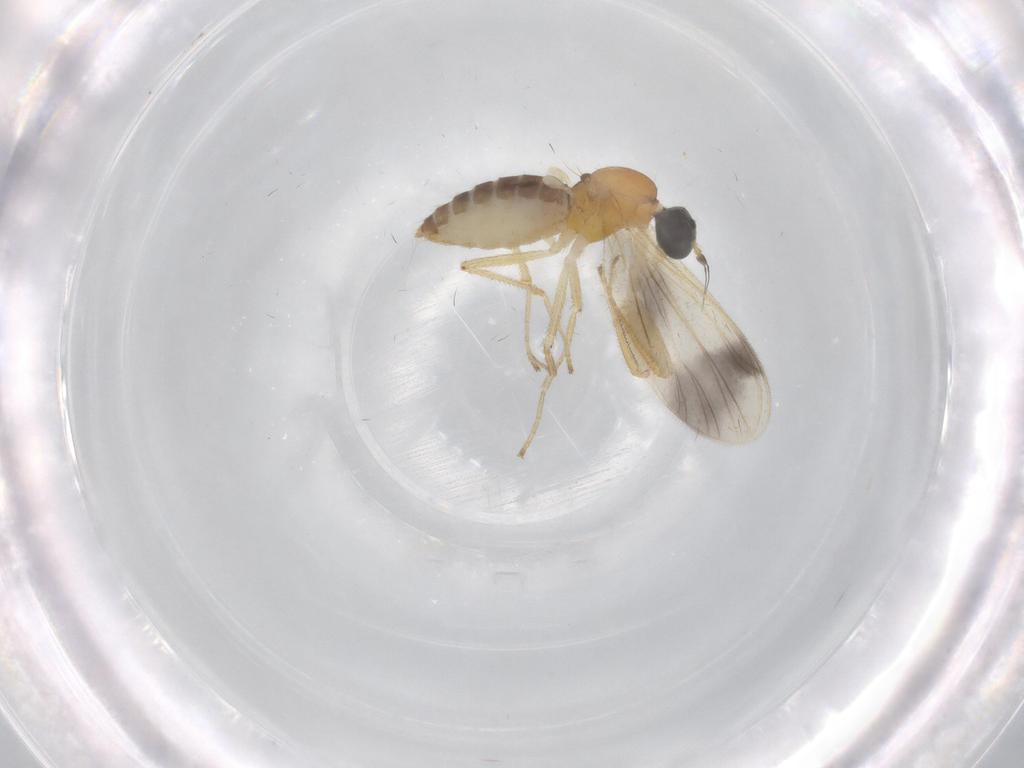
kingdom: Animalia
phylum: Arthropoda
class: Insecta
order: Diptera
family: Empididae
